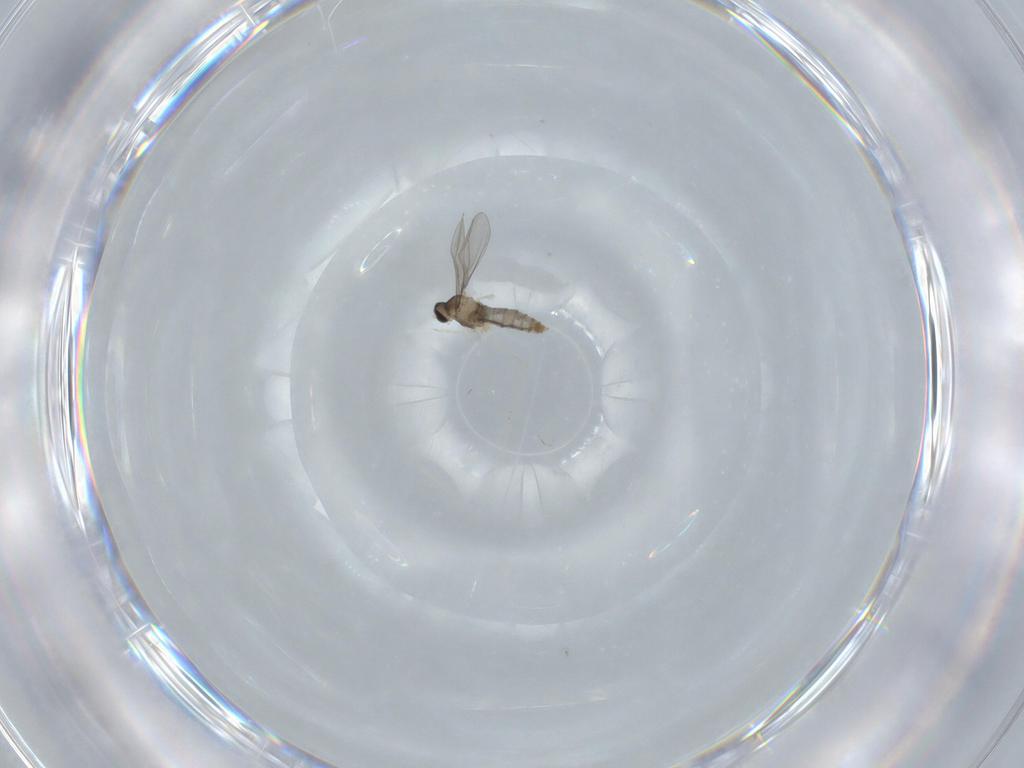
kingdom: Animalia
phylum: Arthropoda
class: Insecta
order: Diptera
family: Cecidomyiidae
